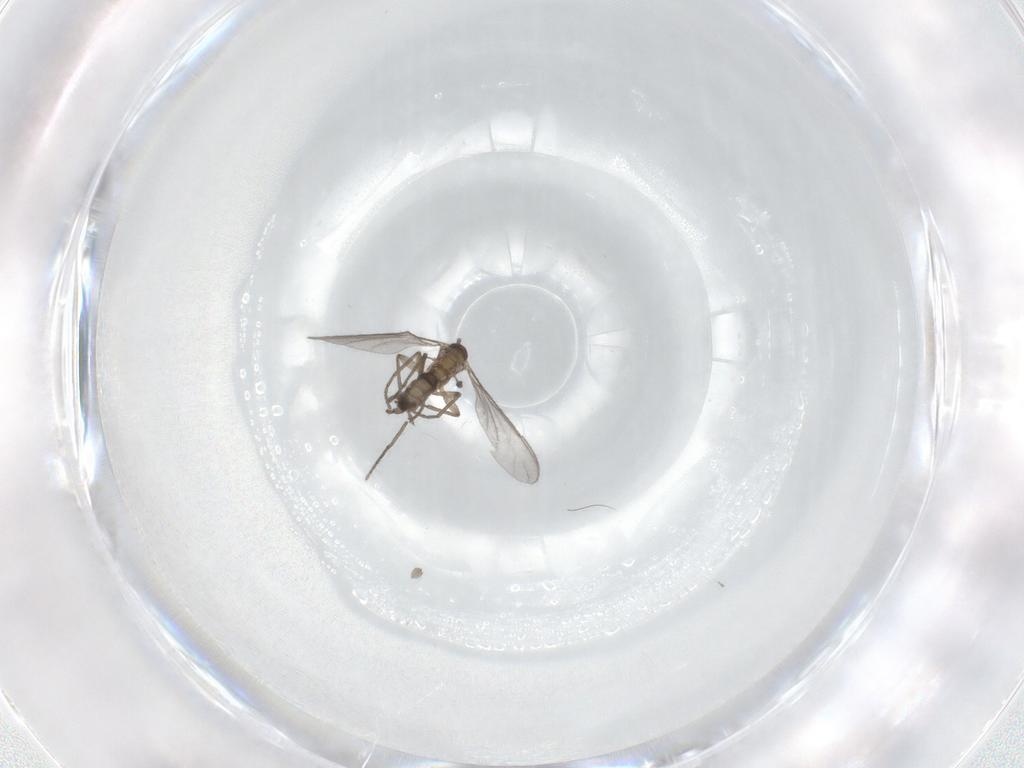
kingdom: Animalia
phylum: Arthropoda
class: Insecta
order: Diptera
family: Sciaridae
